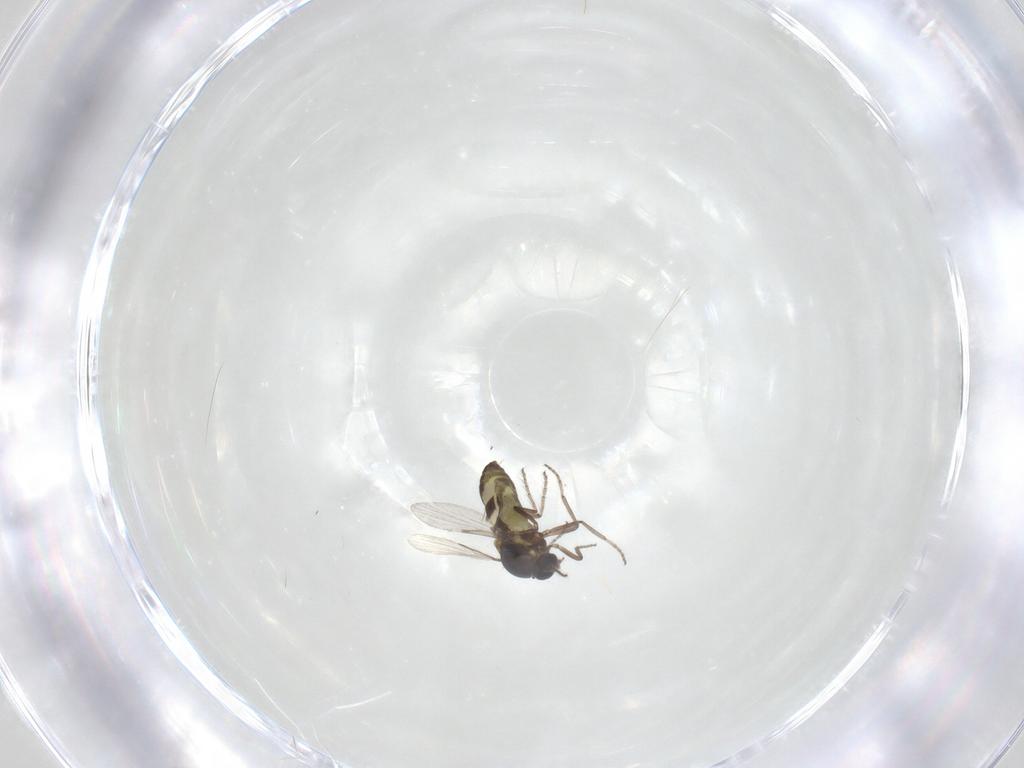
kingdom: Animalia
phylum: Arthropoda
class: Insecta
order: Diptera
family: Ceratopogonidae
